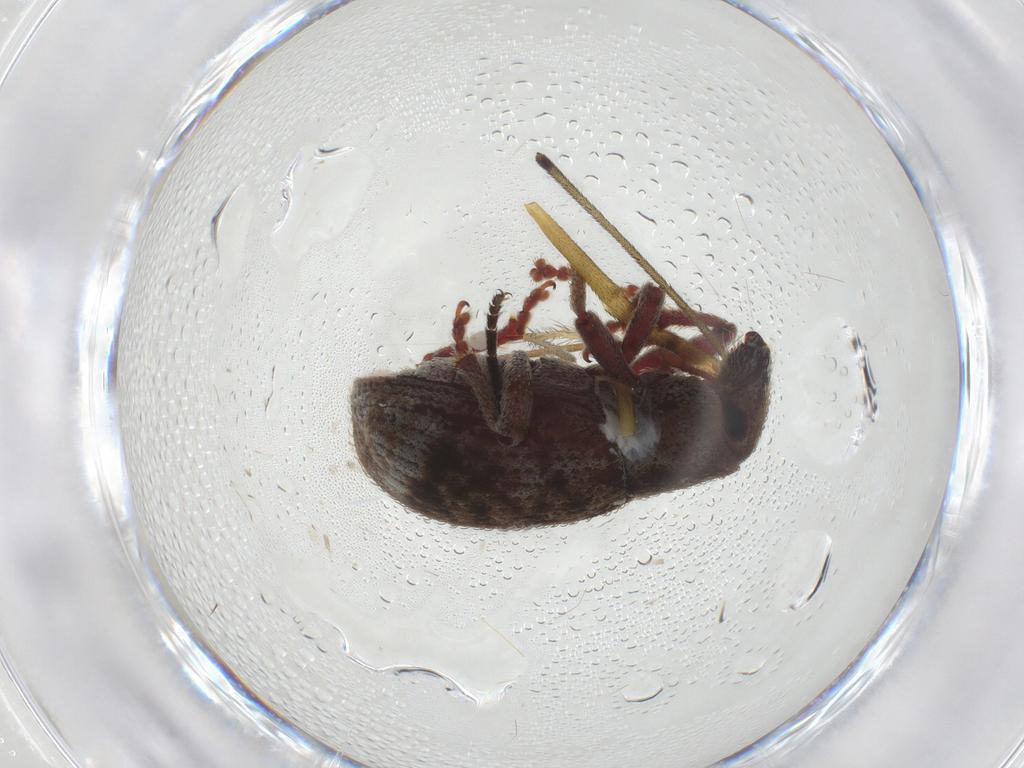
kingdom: Animalia
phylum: Arthropoda
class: Insecta
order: Coleoptera
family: Curculionidae
